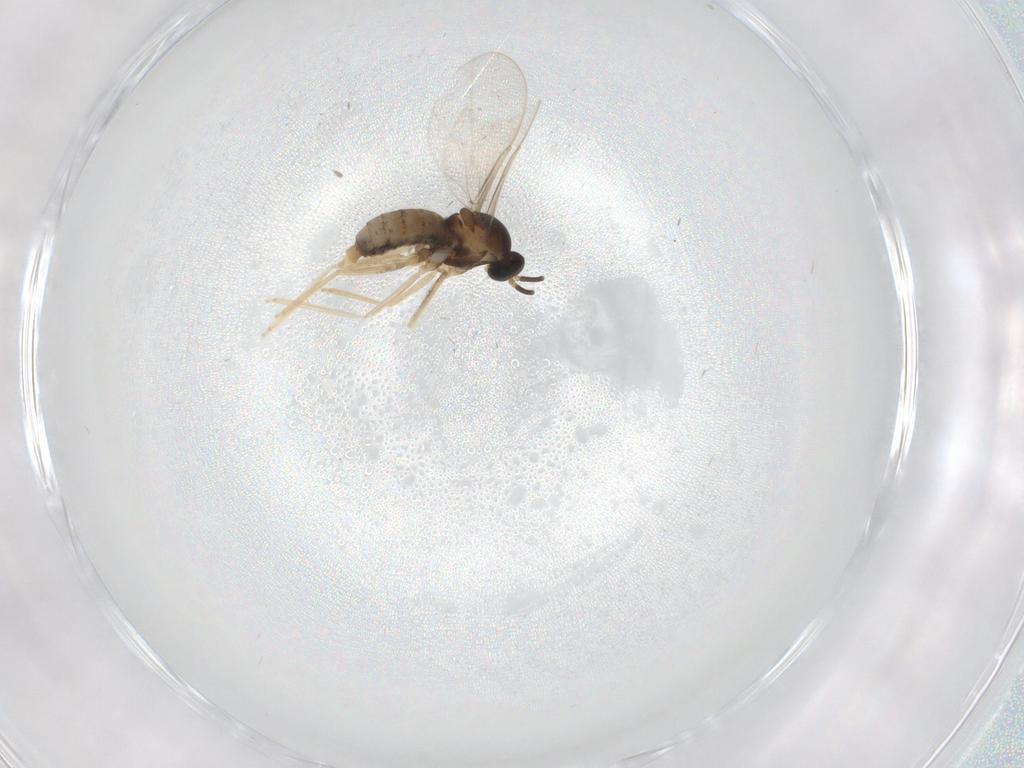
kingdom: Animalia
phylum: Arthropoda
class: Insecta
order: Diptera
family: Cecidomyiidae
